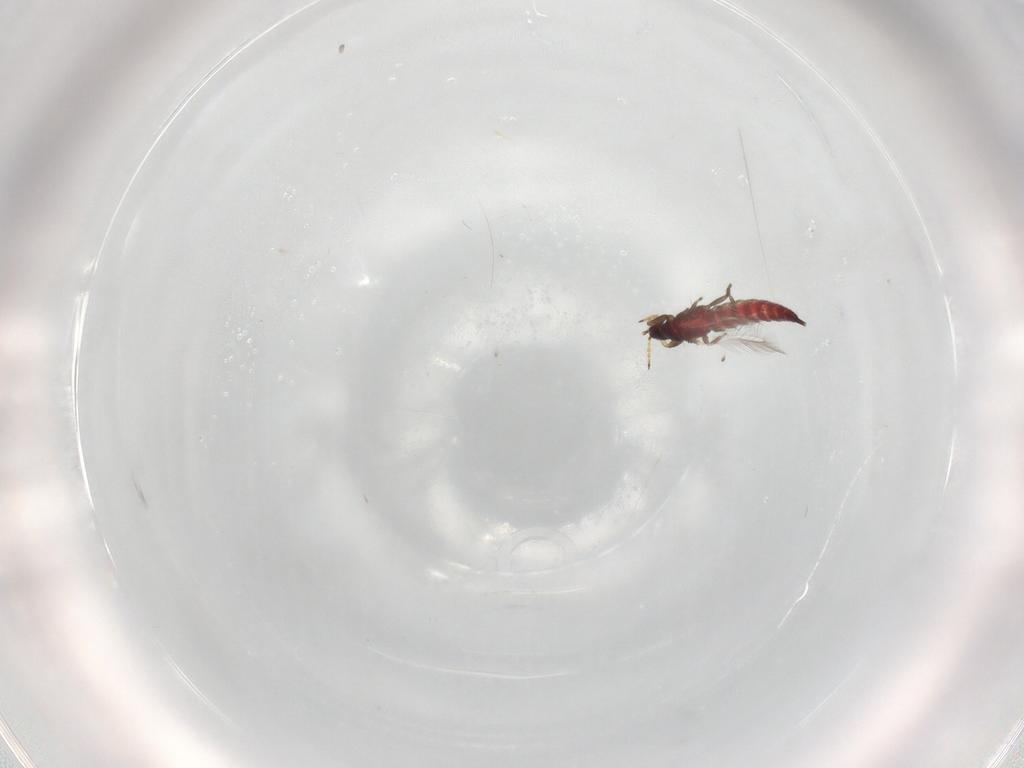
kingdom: Animalia
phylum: Arthropoda
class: Insecta
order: Thysanoptera
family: Phlaeothripidae
